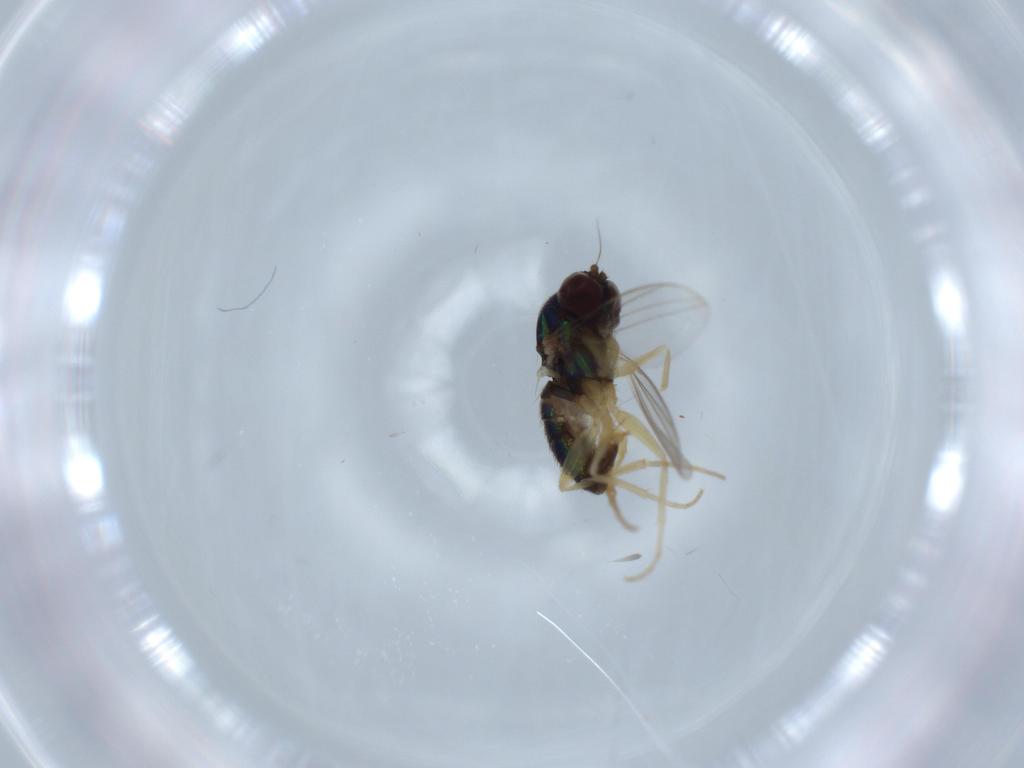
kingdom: Animalia
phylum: Arthropoda
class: Insecta
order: Diptera
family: Dolichopodidae
